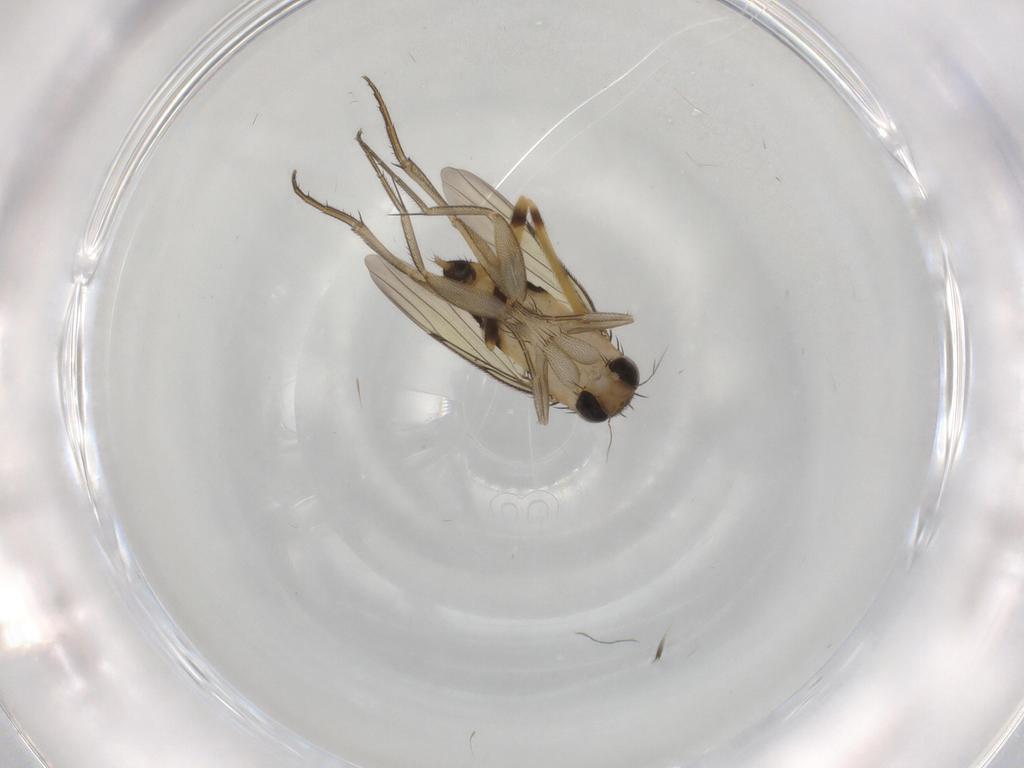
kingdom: Animalia
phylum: Arthropoda
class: Insecta
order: Diptera
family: Chironomidae
